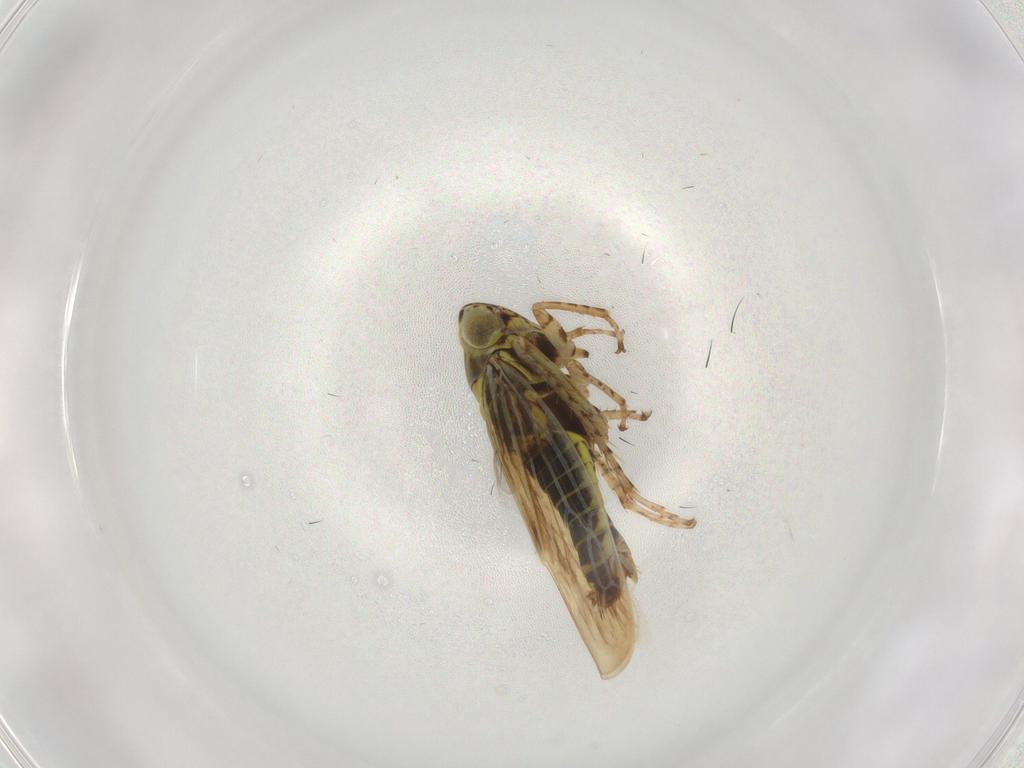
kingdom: Animalia
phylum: Arthropoda
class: Insecta
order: Hemiptera
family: Cicadellidae
